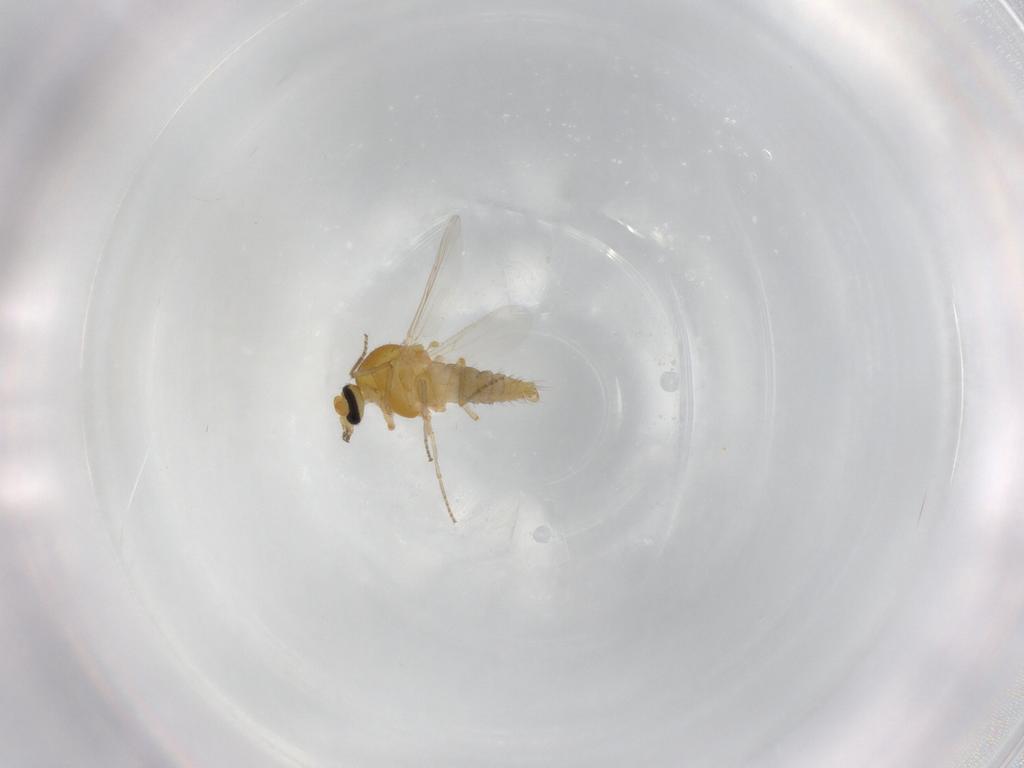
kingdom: Animalia
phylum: Arthropoda
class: Insecta
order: Diptera
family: Ceratopogonidae
